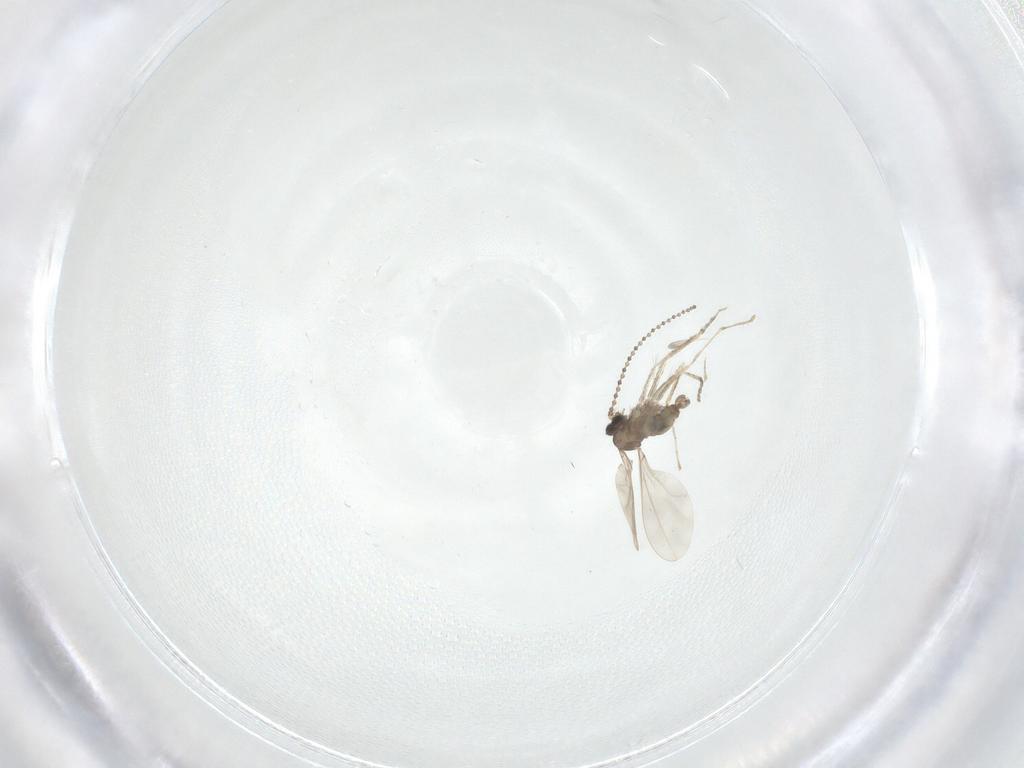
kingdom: Animalia
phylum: Arthropoda
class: Insecta
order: Diptera
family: Cecidomyiidae
